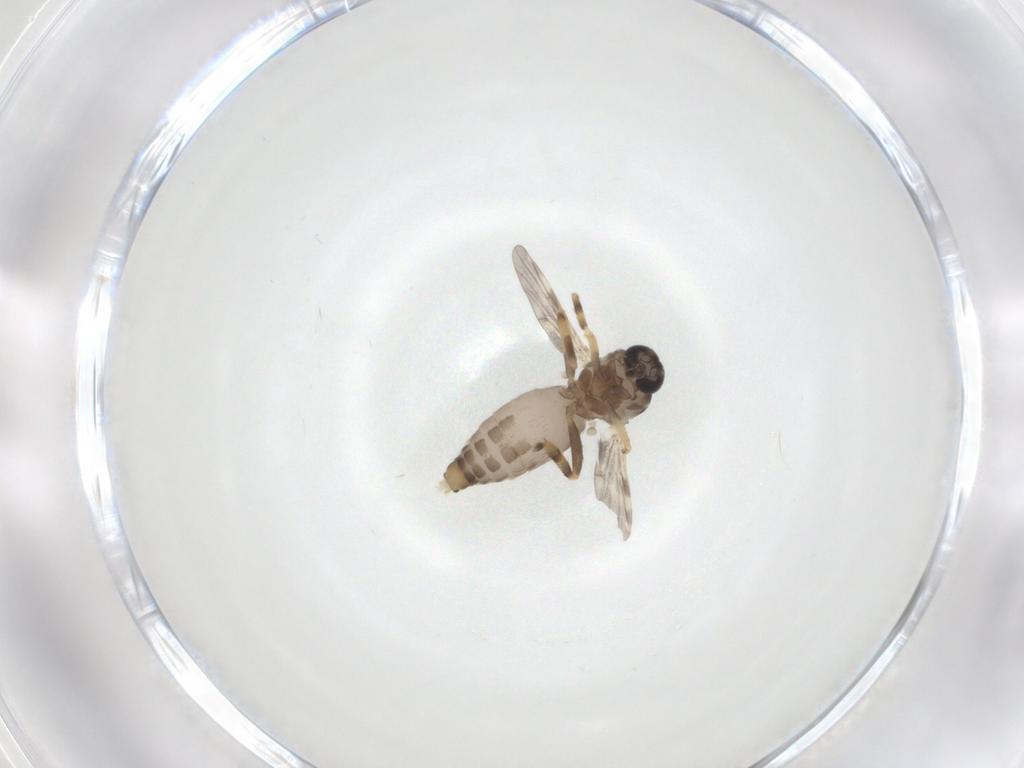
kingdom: Animalia
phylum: Arthropoda
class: Insecta
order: Diptera
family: Ceratopogonidae
